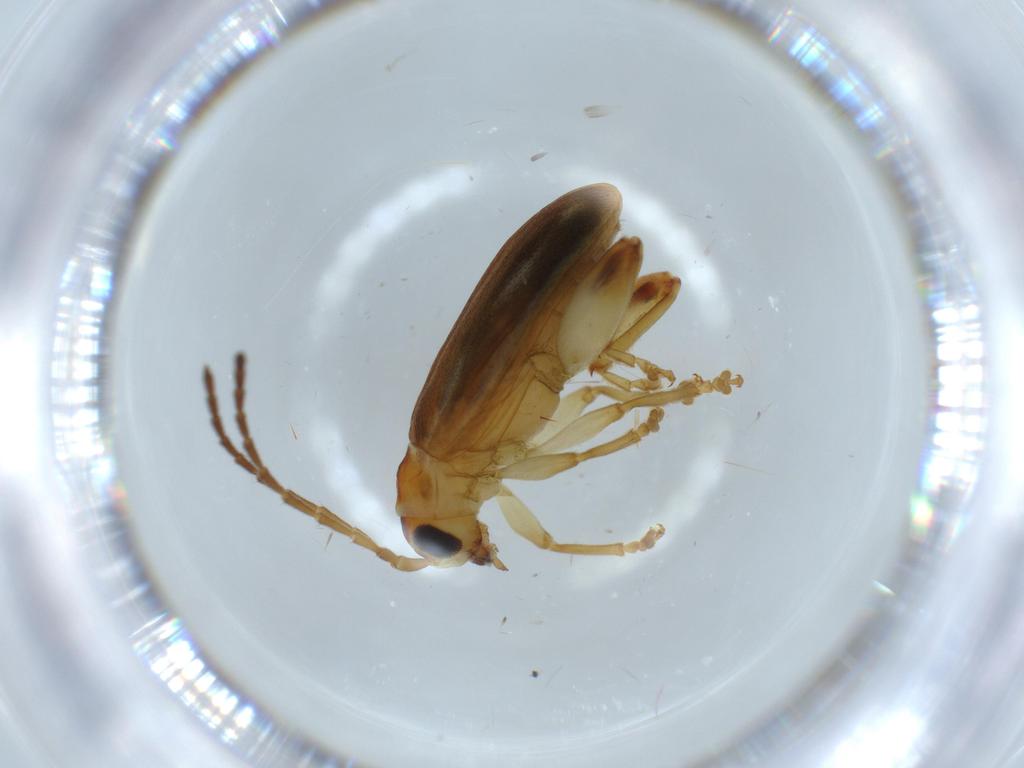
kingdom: Animalia
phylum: Arthropoda
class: Insecta
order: Coleoptera
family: Chrysomelidae
